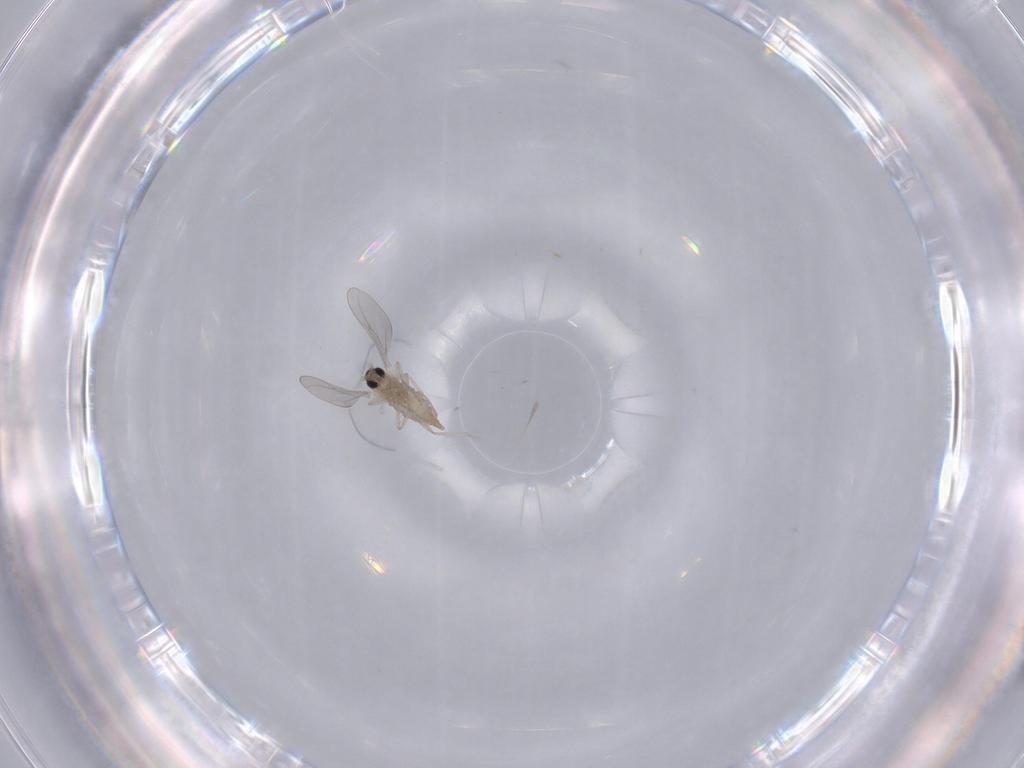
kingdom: Animalia
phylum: Arthropoda
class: Insecta
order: Diptera
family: Cecidomyiidae
